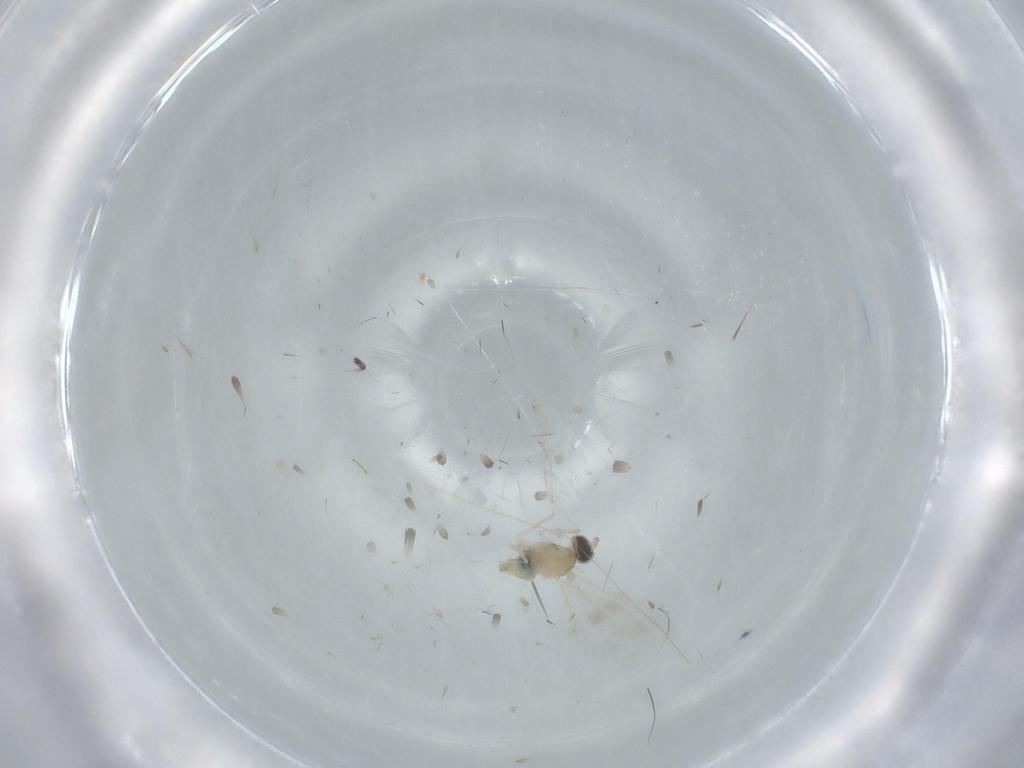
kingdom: Animalia
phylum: Arthropoda
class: Insecta
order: Diptera
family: Cecidomyiidae
